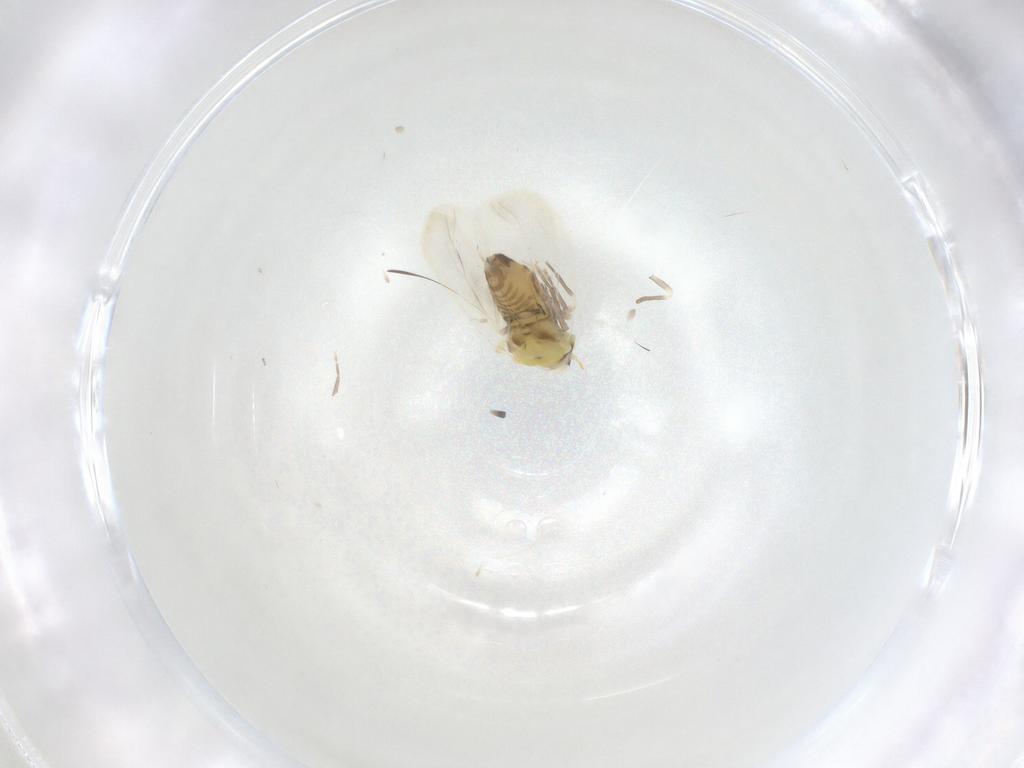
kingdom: Animalia
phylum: Arthropoda
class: Insecta
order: Hemiptera
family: Aleyrodidae
